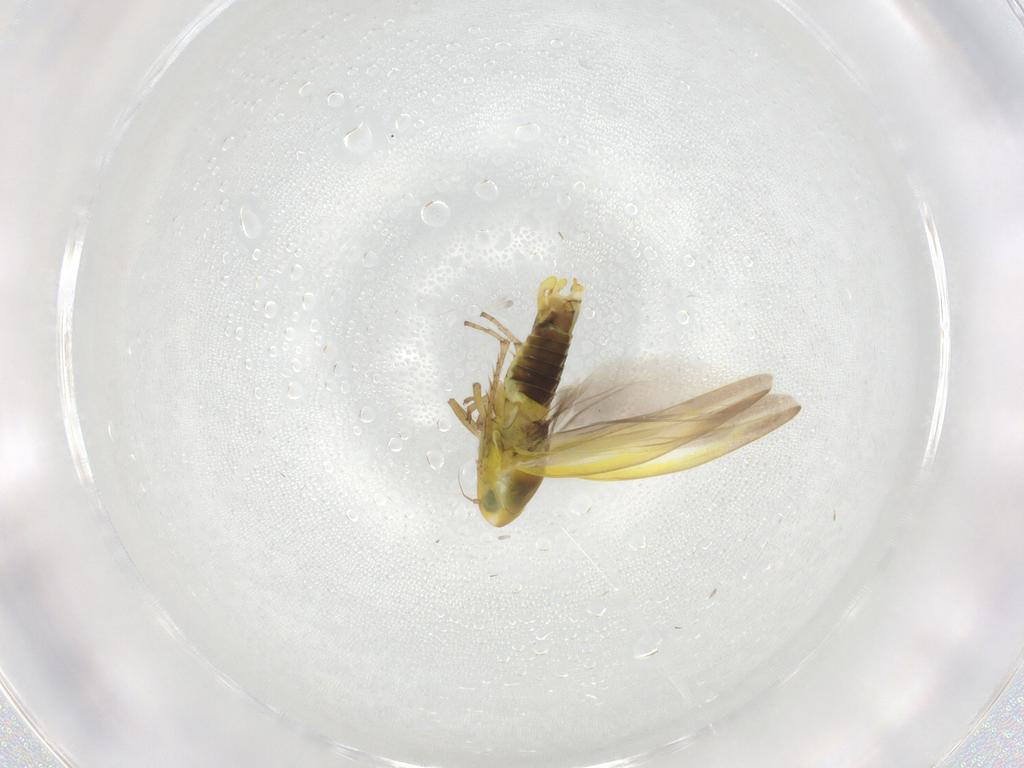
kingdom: Animalia
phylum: Arthropoda
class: Insecta
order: Hemiptera
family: Cicadellidae
